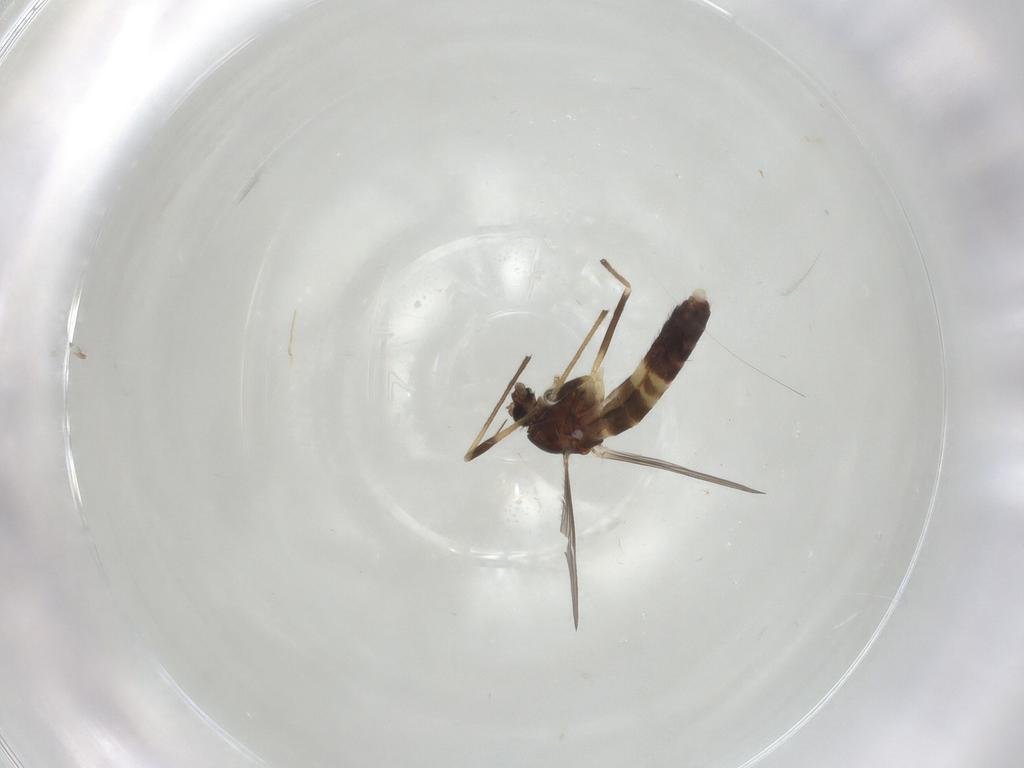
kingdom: Animalia
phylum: Arthropoda
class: Insecta
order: Diptera
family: Chironomidae
